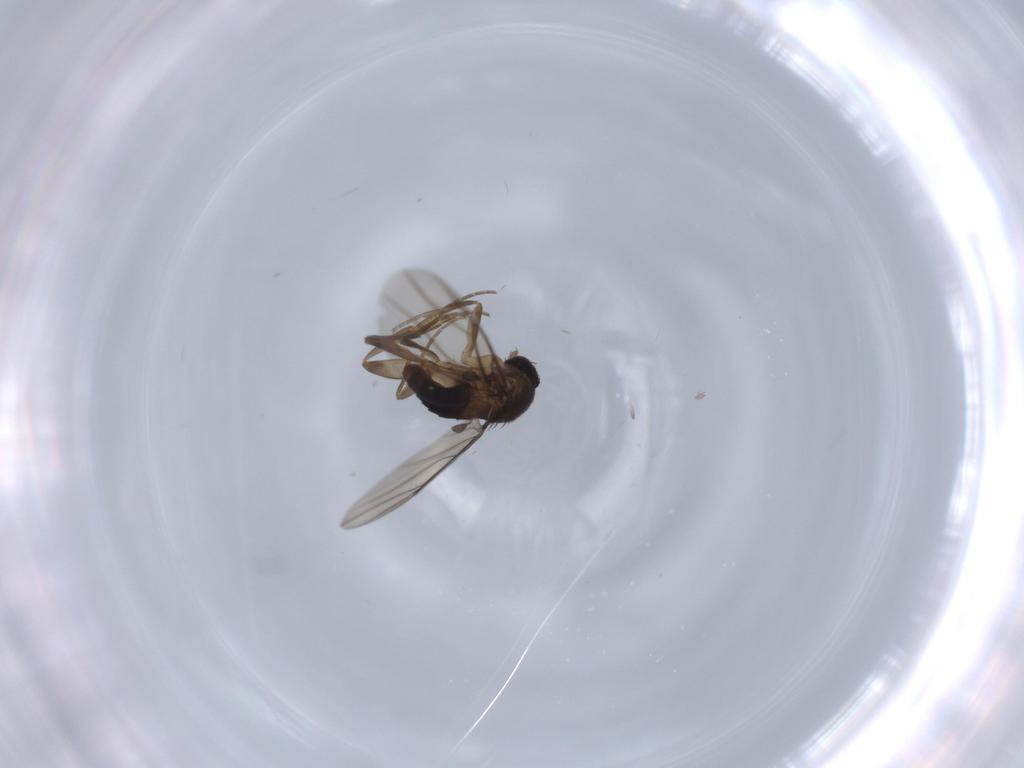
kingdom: Animalia
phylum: Arthropoda
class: Insecta
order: Diptera
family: Phoridae
